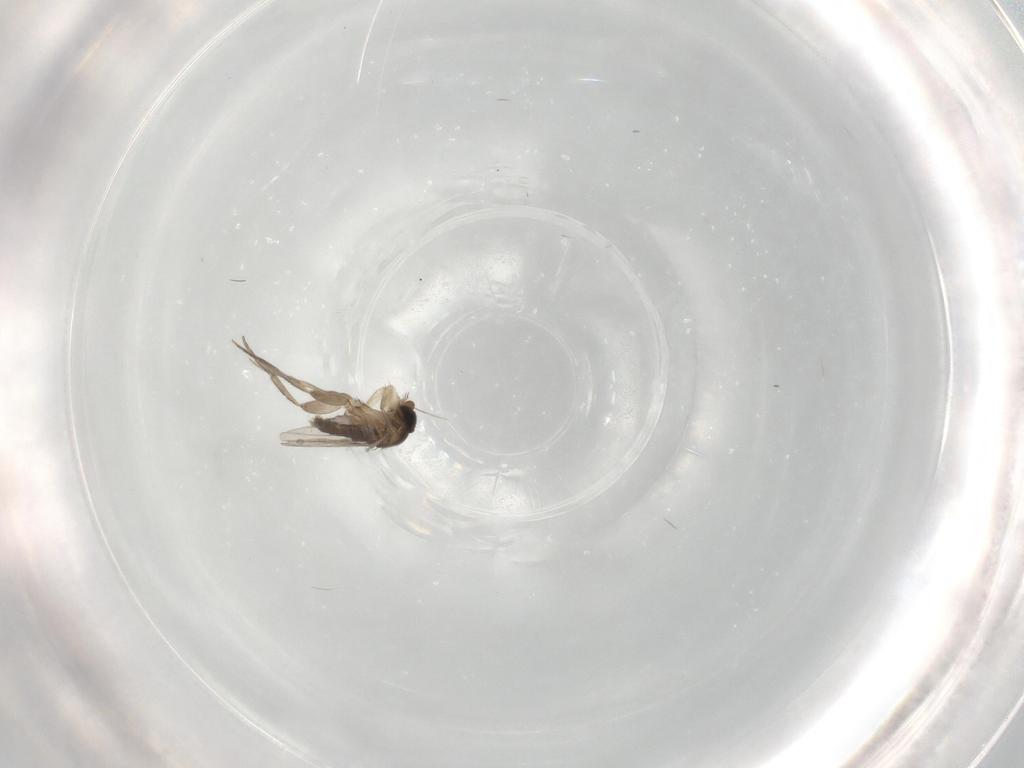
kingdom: Animalia
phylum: Arthropoda
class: Insecta
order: Diptera
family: Phoridae
